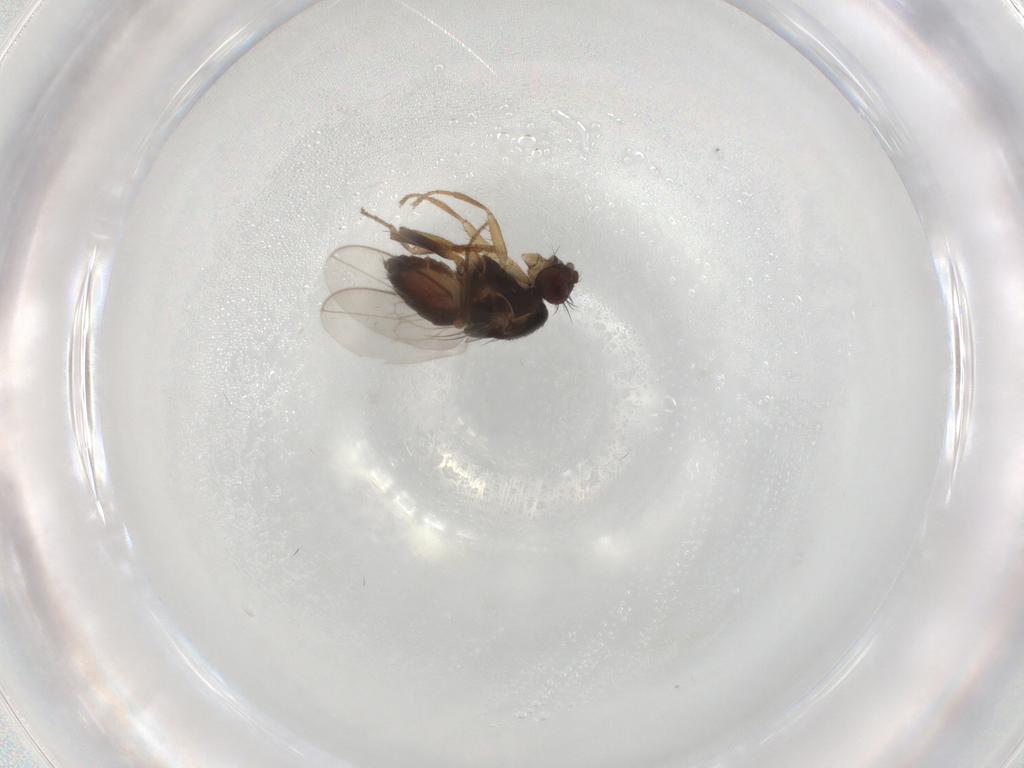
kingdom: Animalia
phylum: Arthropoda
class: Insecta
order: Diptera
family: Sphaeroceridae
